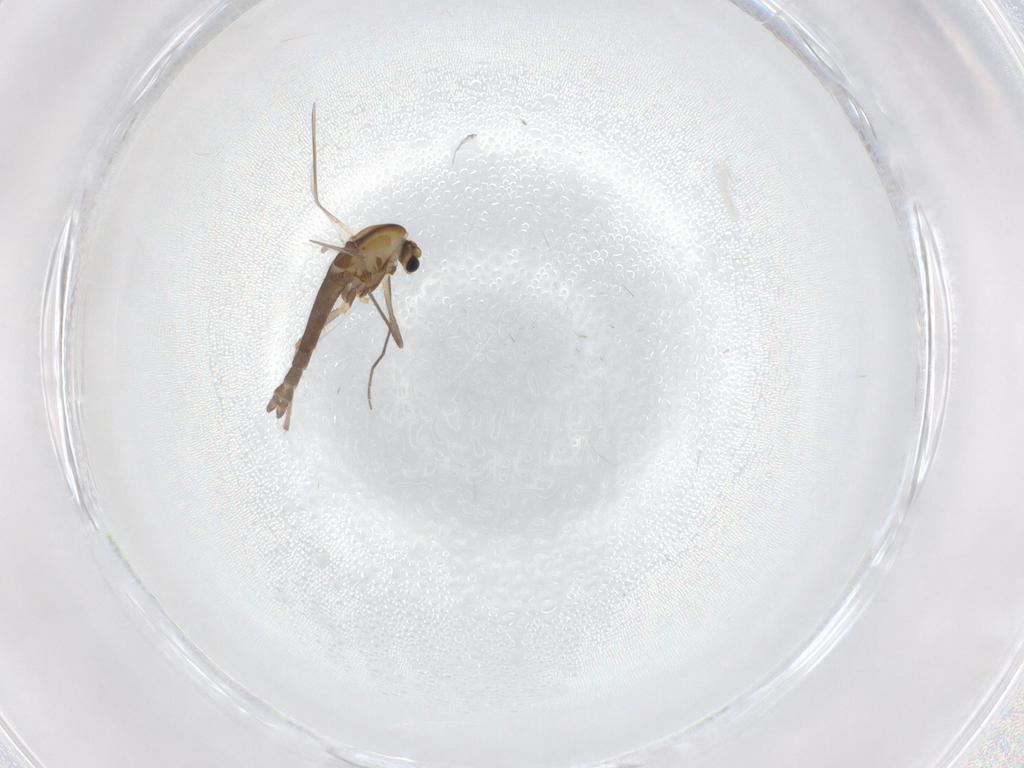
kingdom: Animalia
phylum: Arthropoda
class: Insecta
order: Diptera
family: Chironomidae
